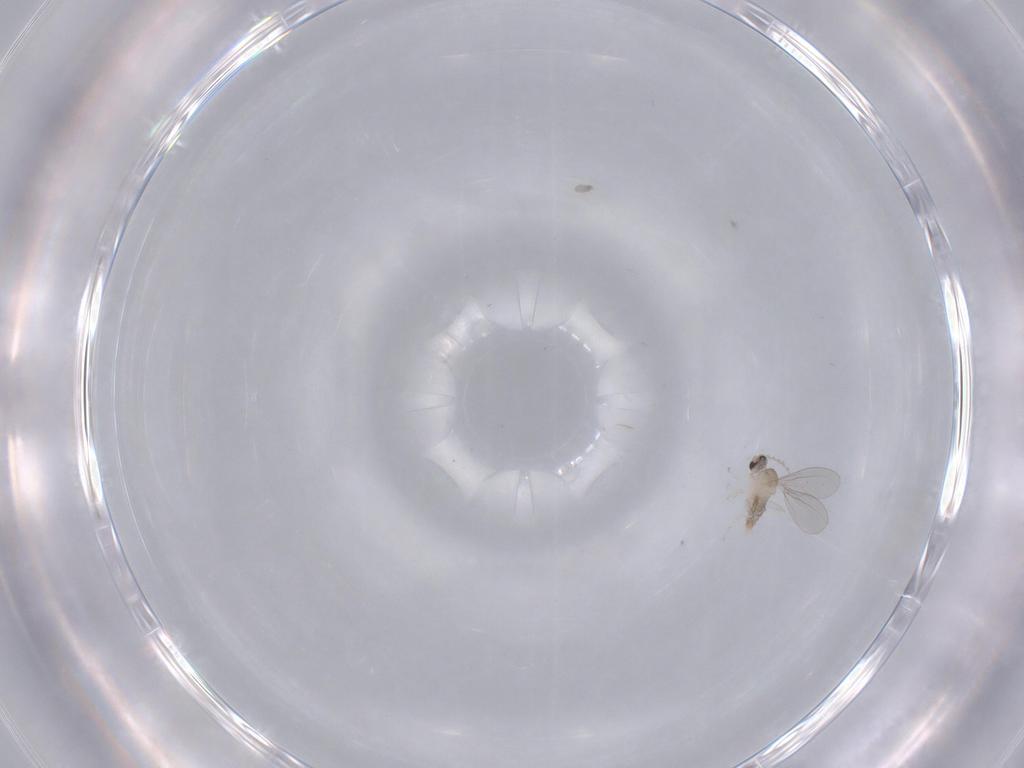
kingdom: Animalia
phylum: Arthropoda
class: Insecta
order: Diptera
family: Cecidomyiidae
